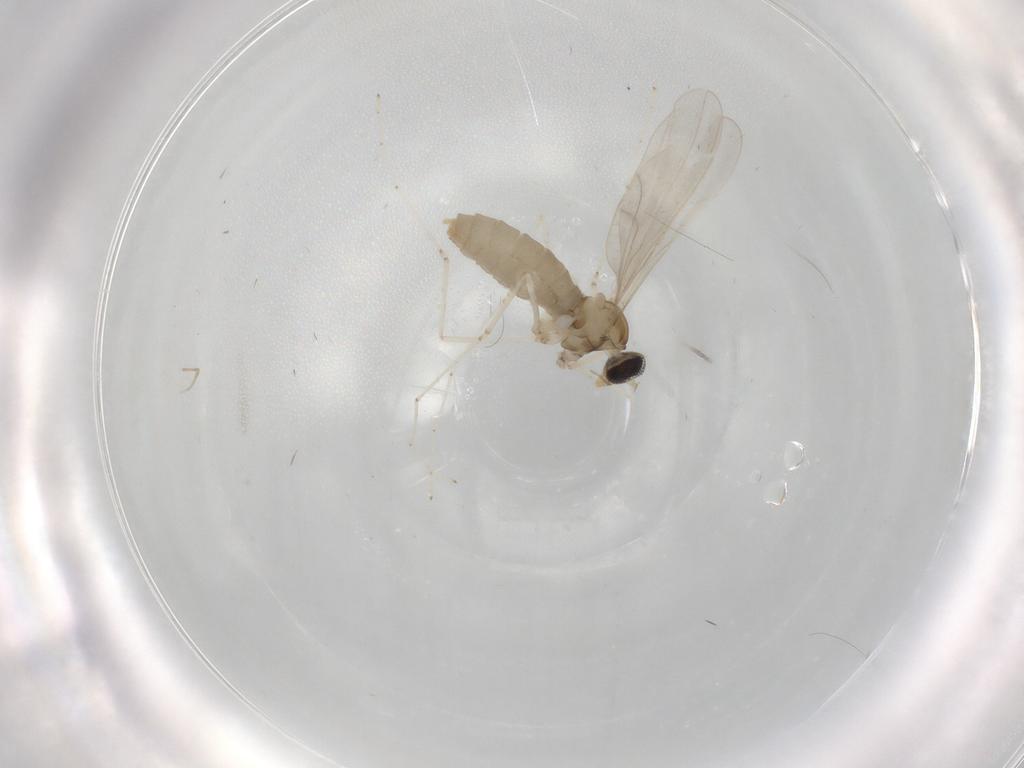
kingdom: Animalia
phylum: Arthropoda
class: Insecta
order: Diptera
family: Cecidomyiidae
